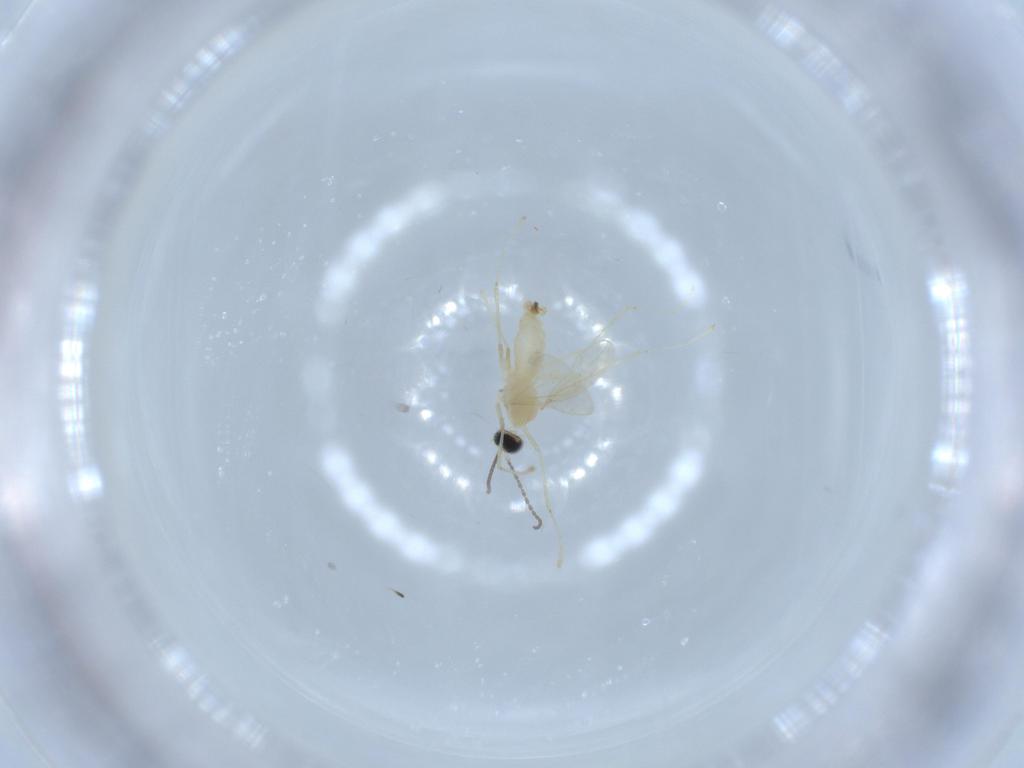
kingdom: Animalia
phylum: Arthropoda
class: Insecta
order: Diptera
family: Cecidomyiidae
